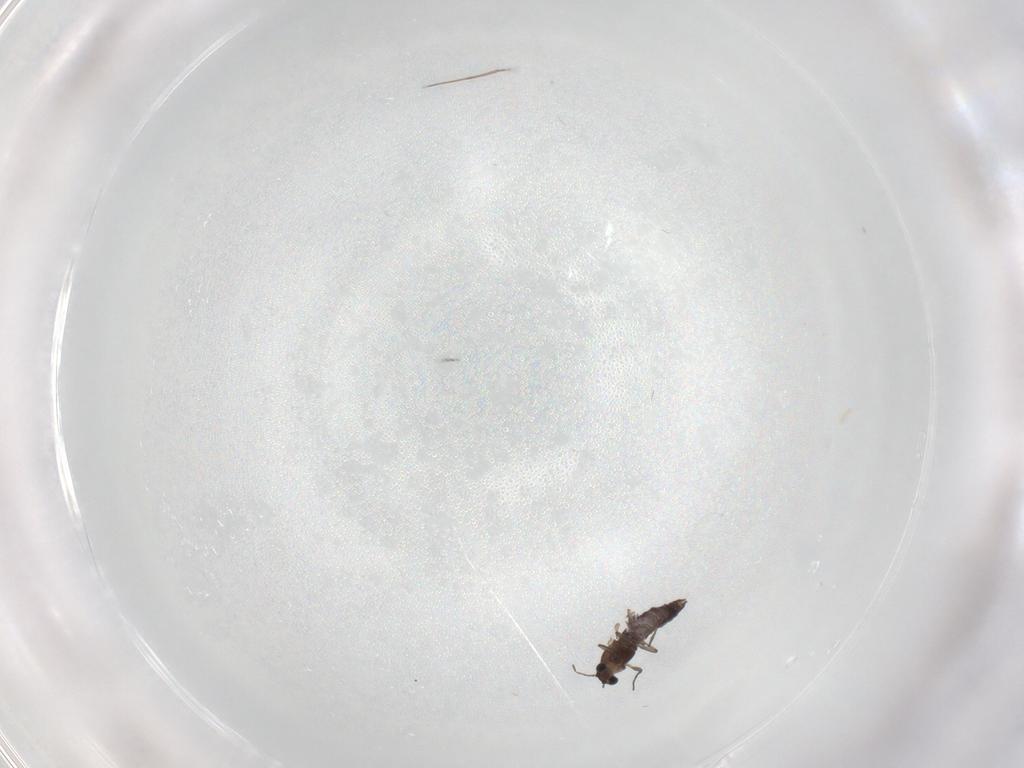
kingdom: Animalia
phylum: Arthropoda
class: Insecta
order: Diptera
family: Chironomidae
